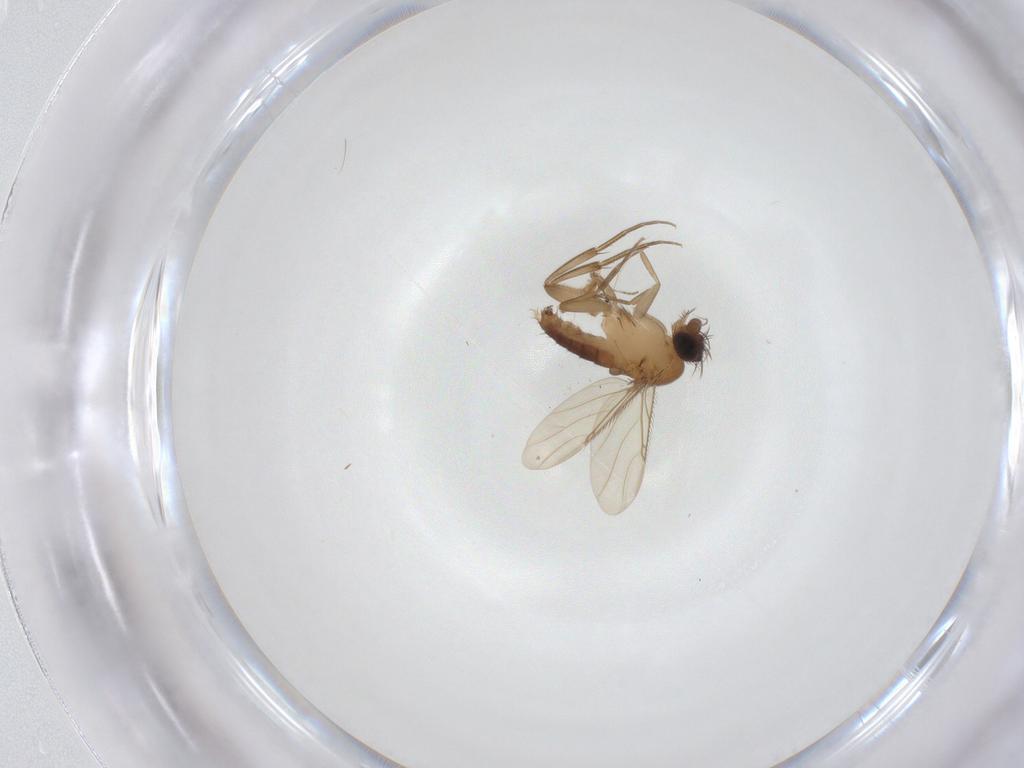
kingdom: Animalia
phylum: Arthropoda
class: Insecta
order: Diptera
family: Phoridae
